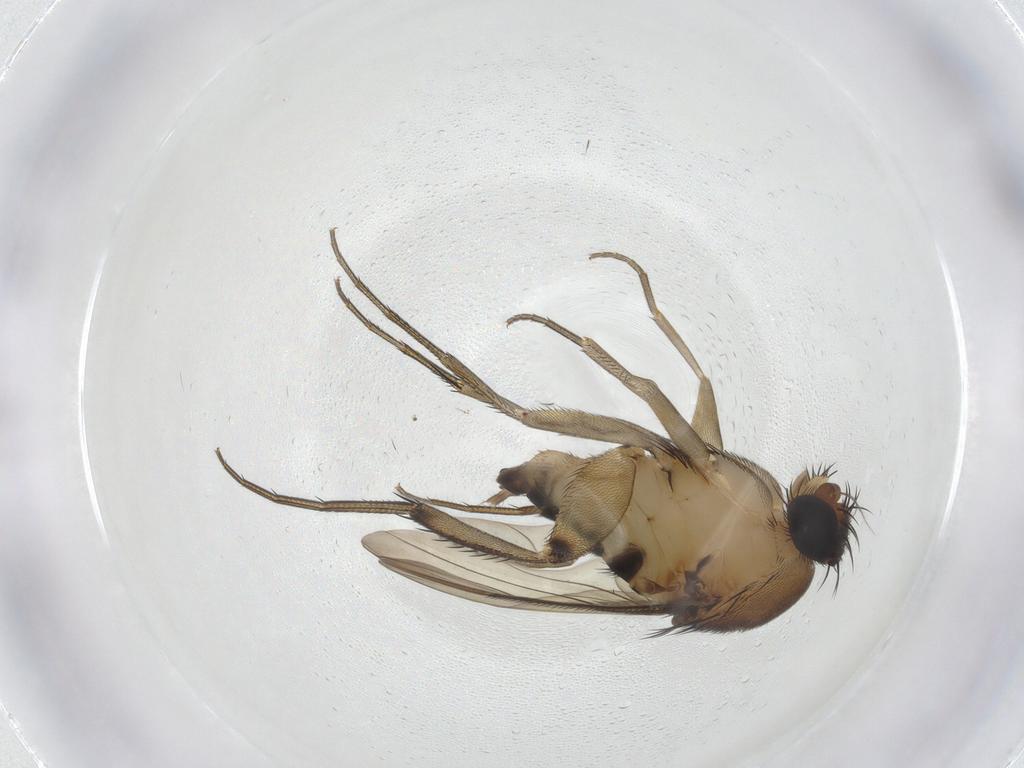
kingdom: Animalia
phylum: Arthropoda
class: Insecta
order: Diptera
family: Phoridae
